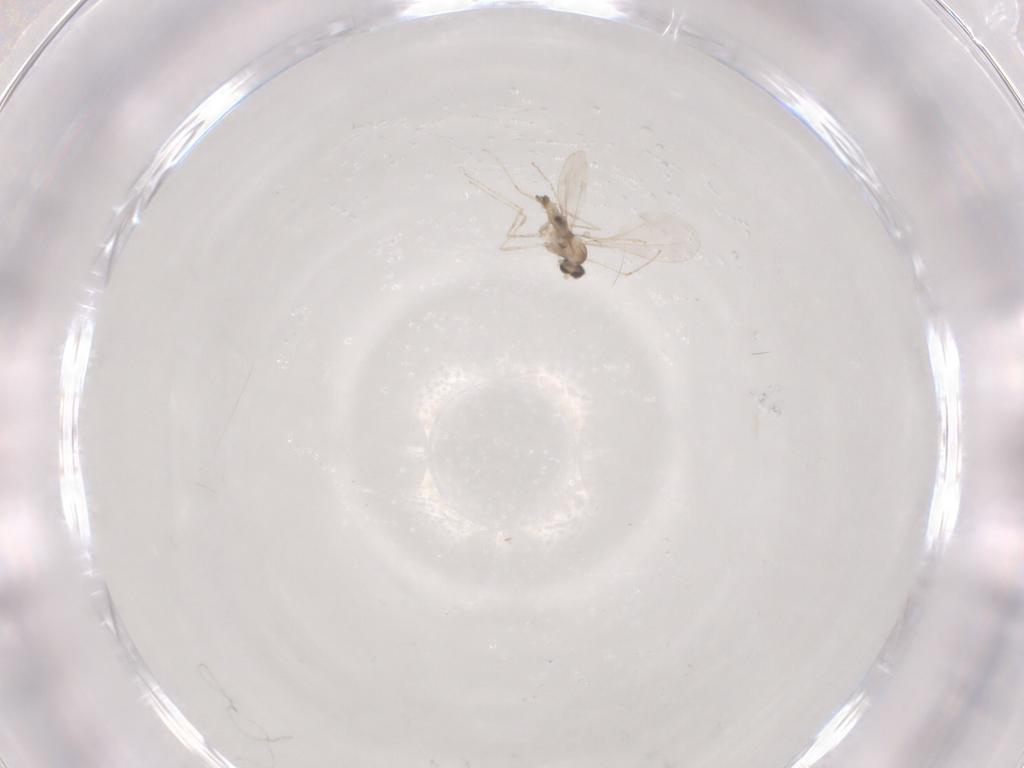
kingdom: Animalia
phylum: Arthropoda
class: Insecta
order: Diptera
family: Cecidomyiidae
